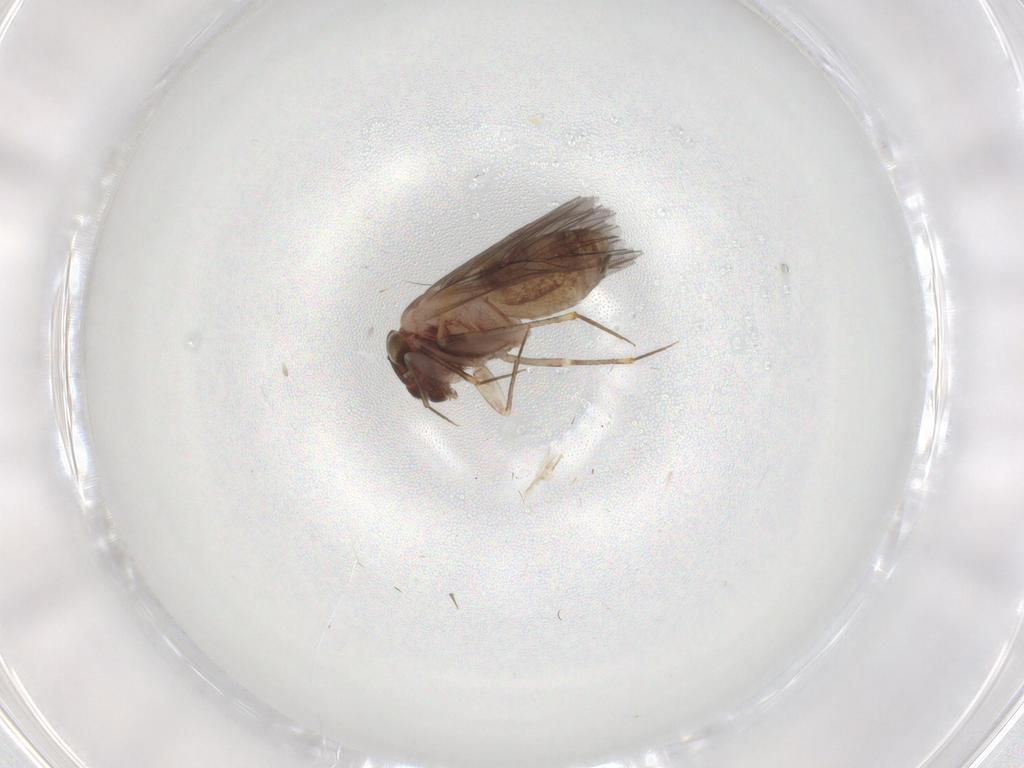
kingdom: Animalia
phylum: Arthropoda
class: Insecta
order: Psocodea
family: Lepidopsocidae
